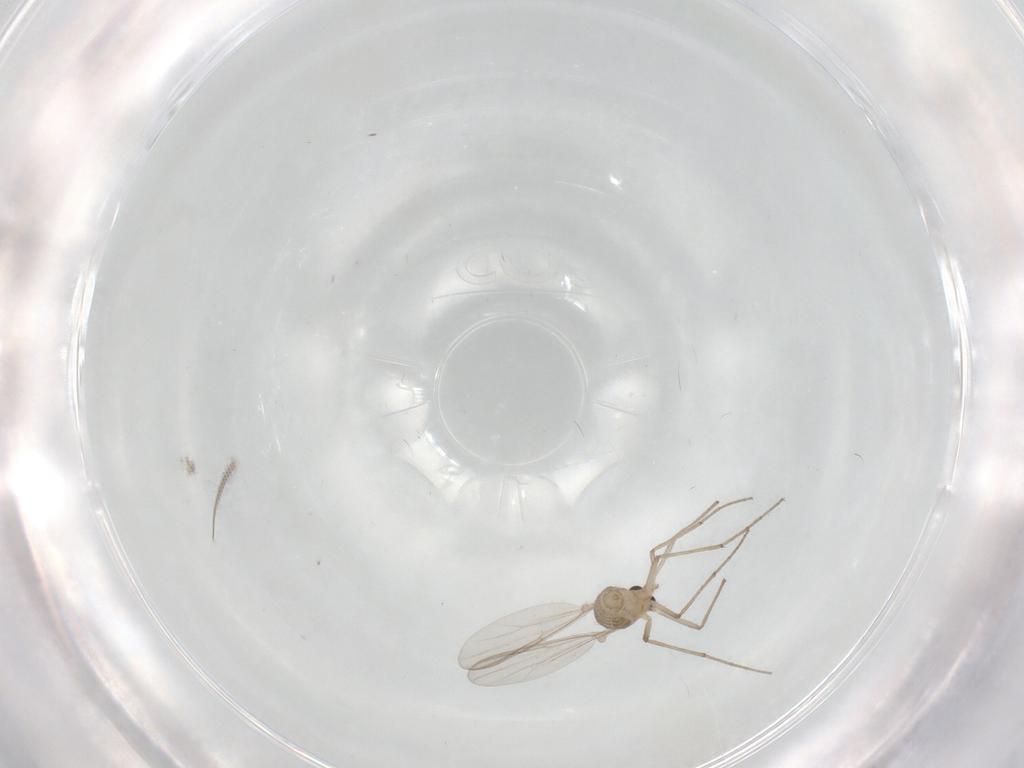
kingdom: Animalia
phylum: Arthropoda
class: Insecta
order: Diptera
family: Chironomidae
